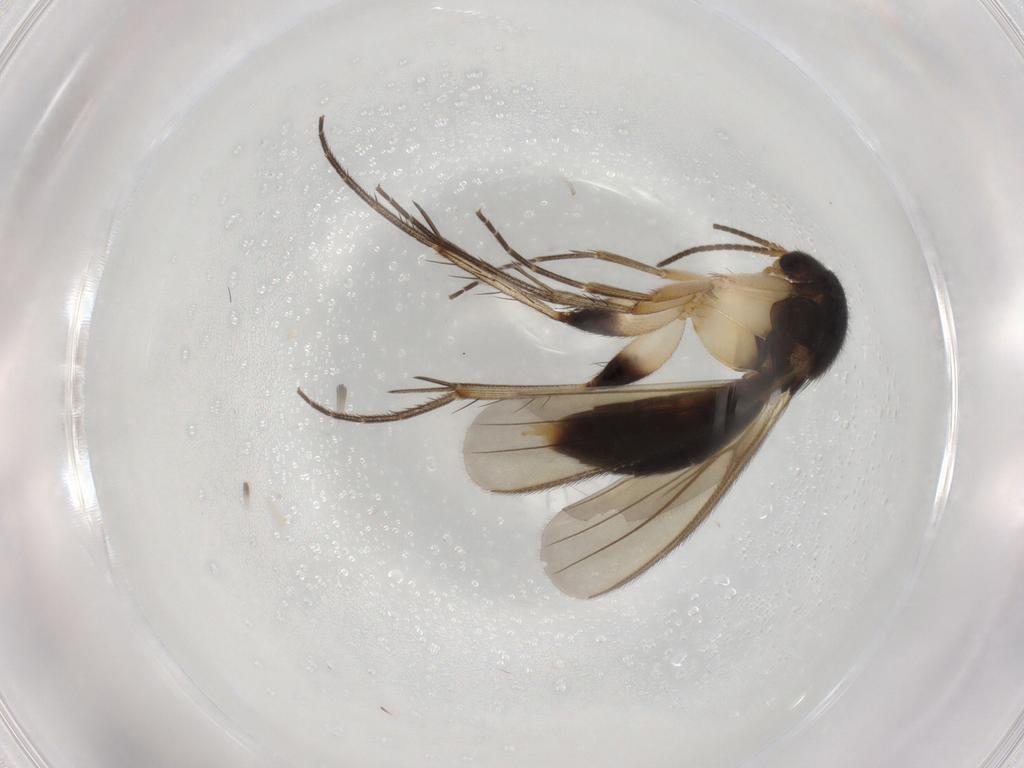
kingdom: Animalia
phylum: Arthropoda
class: Insecta
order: Diptera
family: Mycetophilidae
